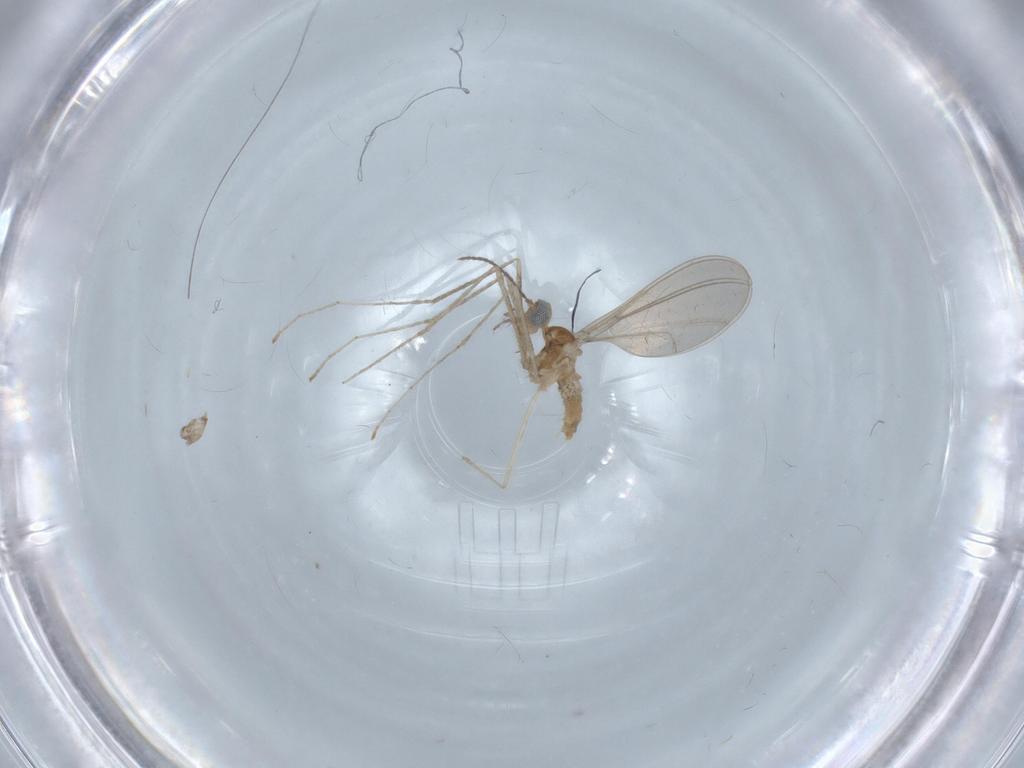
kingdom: Animalia
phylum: Arthropoda
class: Insecta
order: Diptera
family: Cecidomyiidae
